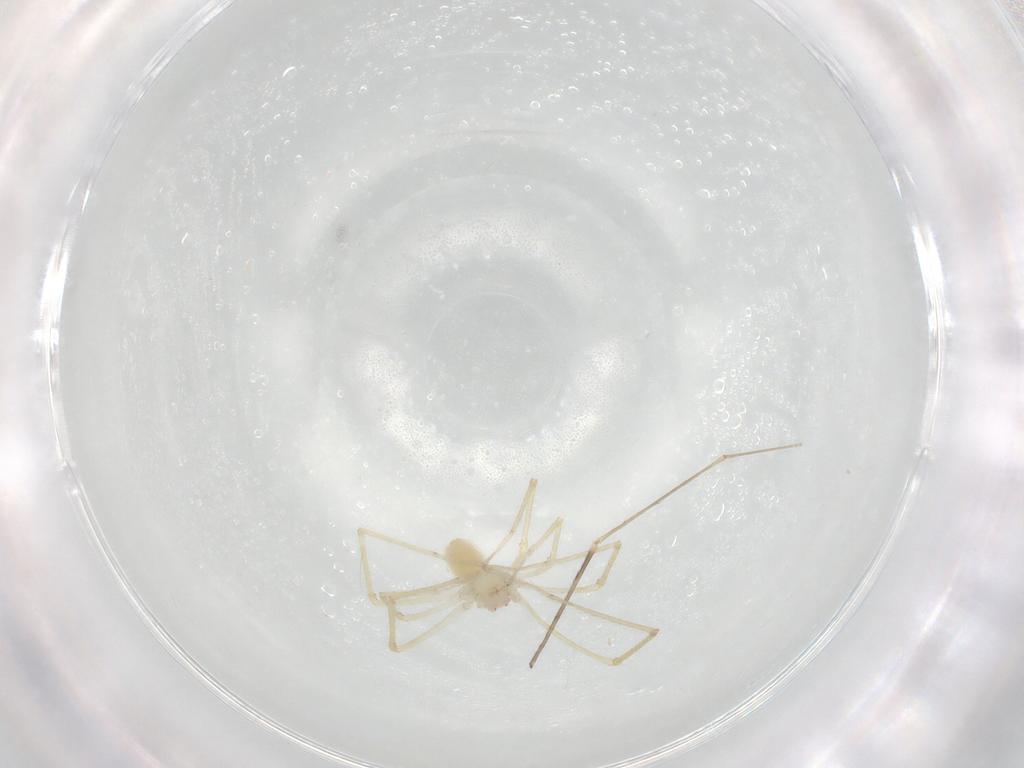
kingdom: Animalia
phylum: Arthropoda
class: Arachnida
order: Araneae
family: Pholcidae
